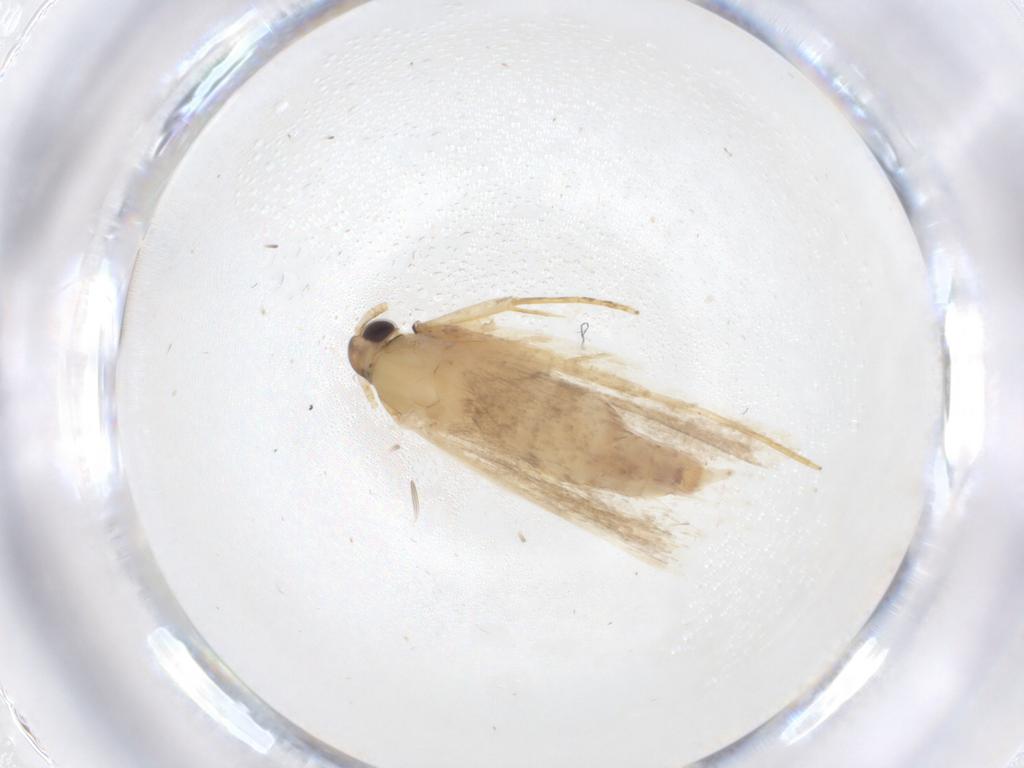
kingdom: Animalia
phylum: Arthropoda
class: Insecta
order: Lepidoptera
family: Lecithoceridae
